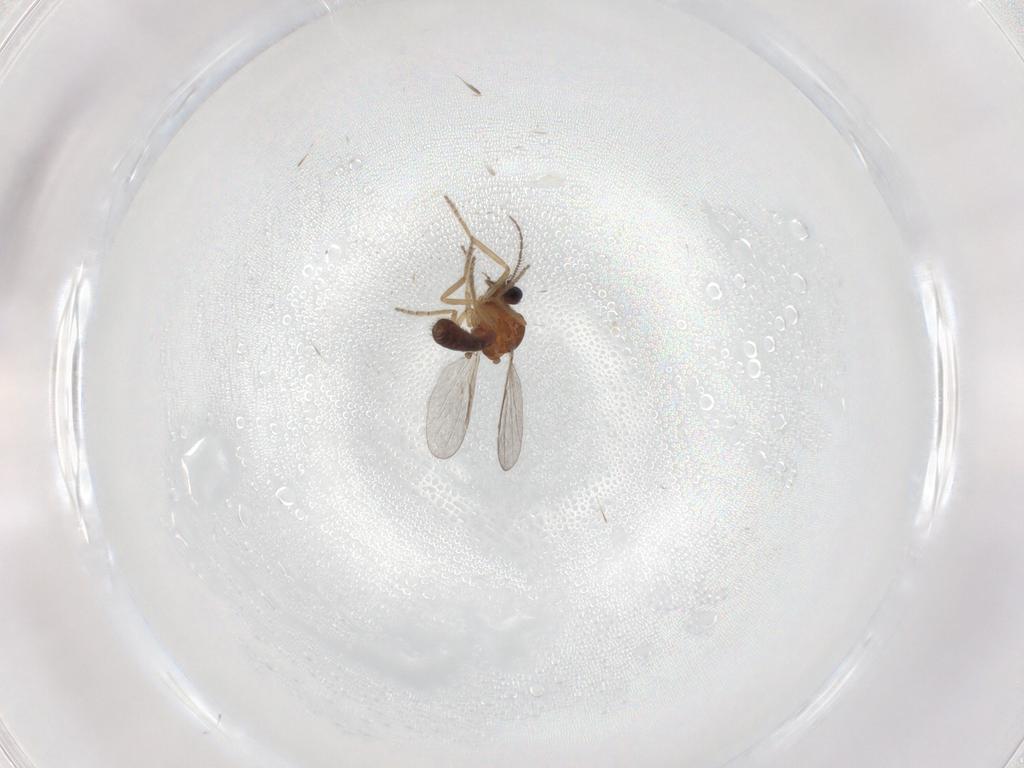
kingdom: Animalia
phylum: Arthropoda
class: Insecta
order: Diptera
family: Ceratopogonidae
